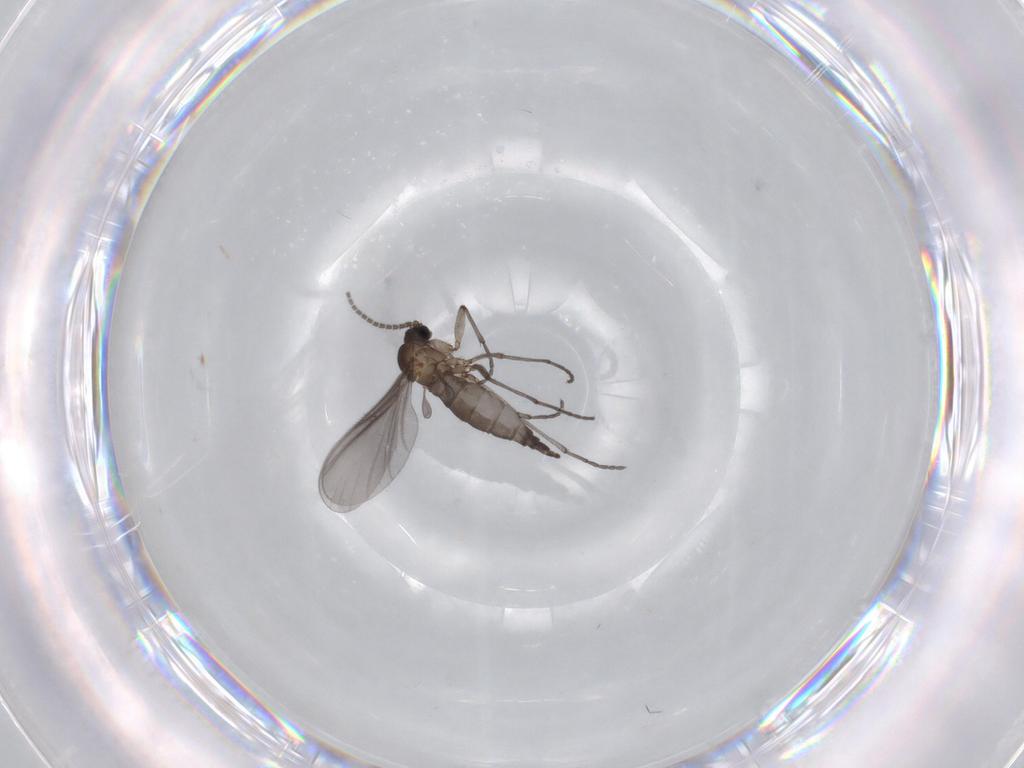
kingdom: Animalia
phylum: Arthropoda
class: Insecta
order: Diptera
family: Sciaridae
